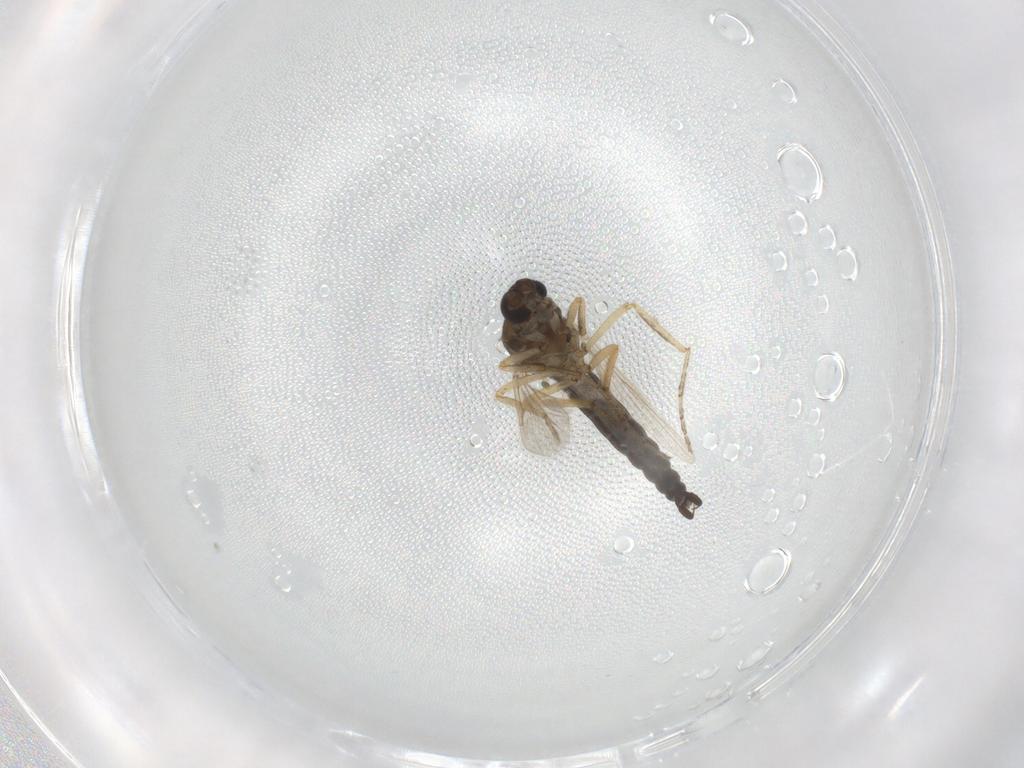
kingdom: Animalia
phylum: Arthropoda
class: Insecta
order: Diptera
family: Ceratopogonidae
